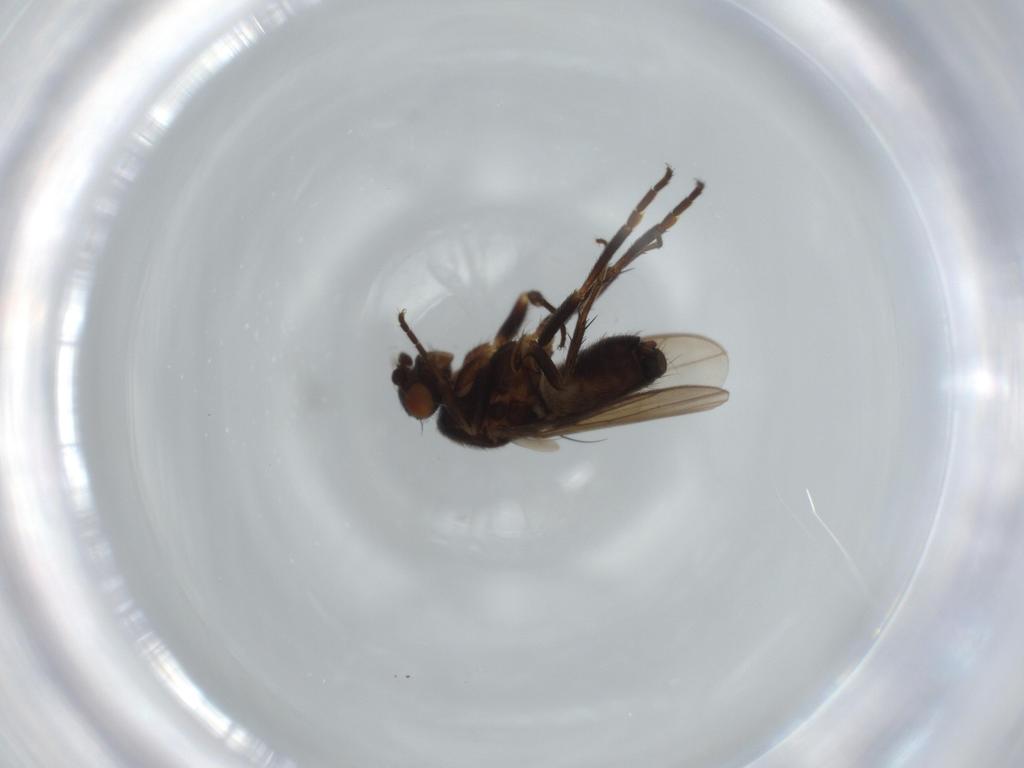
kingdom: Animalia
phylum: Arthropoda
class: Insecta
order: Diptera
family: Sphaeroceridae
